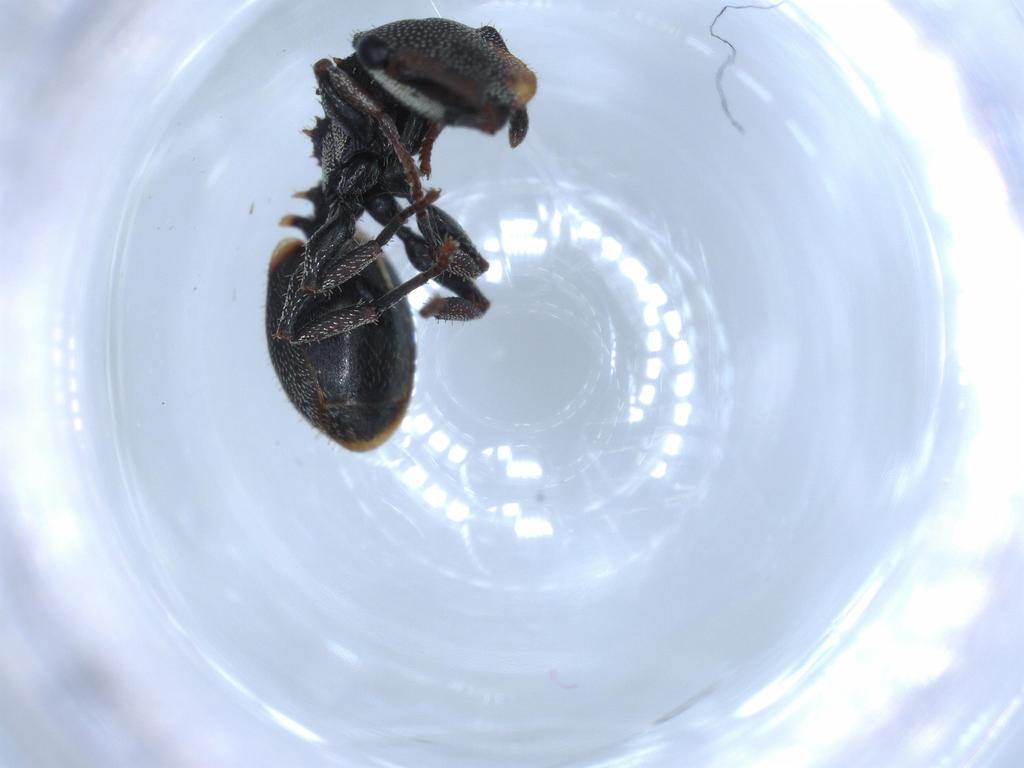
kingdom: Animalia
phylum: Arthropoda
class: Insecta
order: Hymenoptera
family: Formicidae
